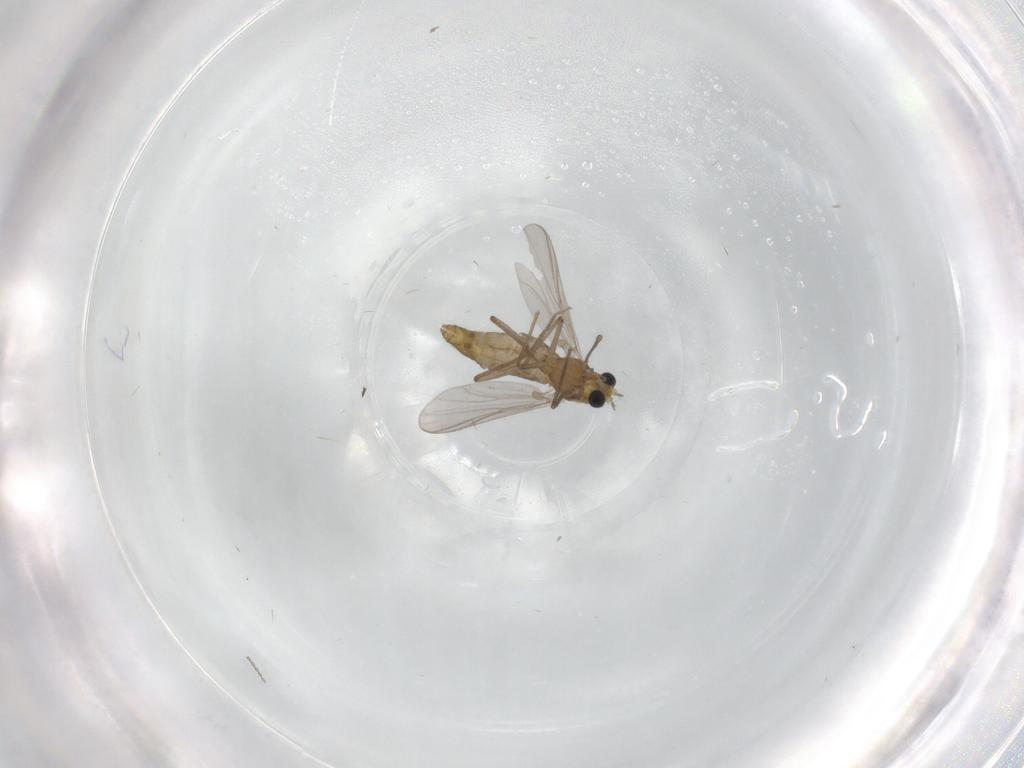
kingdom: Animalia
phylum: Arthropoda
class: Insecta
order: Diptera
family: Chironomidae
